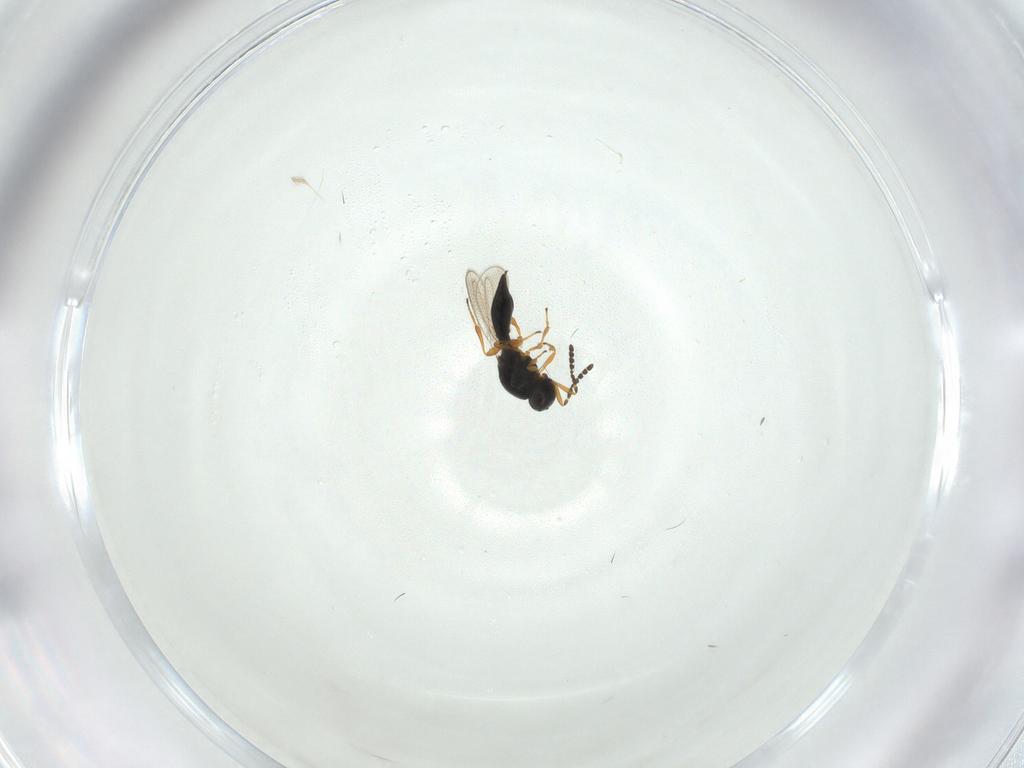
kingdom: Animalia
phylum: Arthropoda
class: Insecta
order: Hymenoptera
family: Platygastridae
